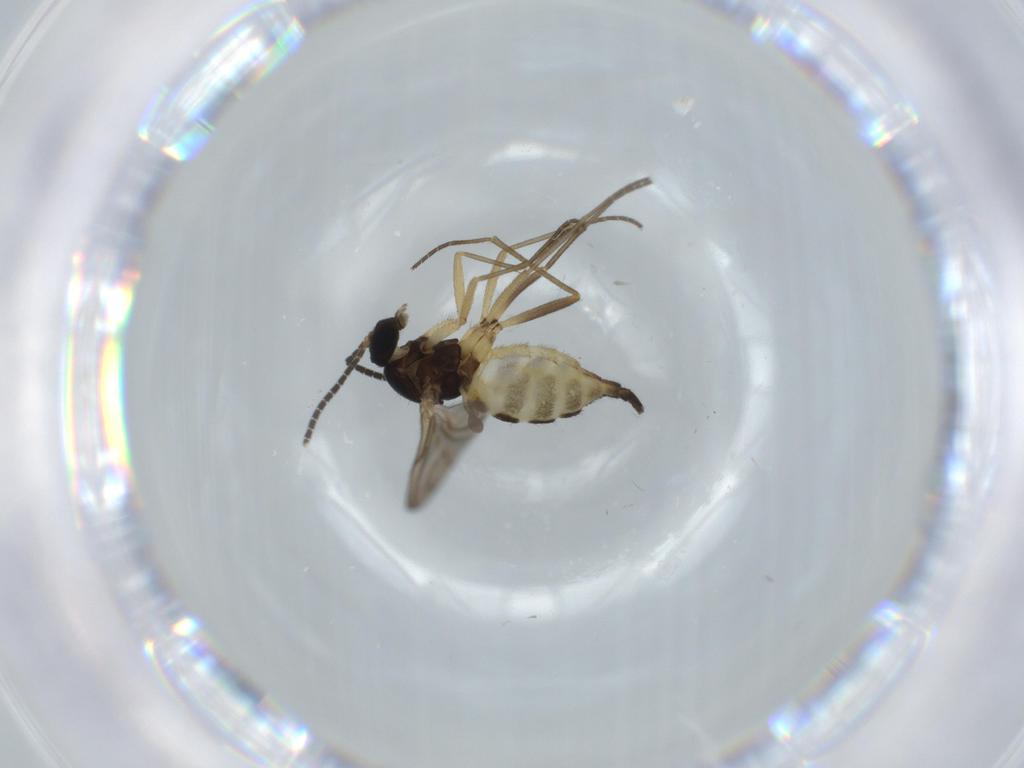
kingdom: Animalia
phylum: Arthropoda
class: Insecta
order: Diptera
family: Sciaridae
